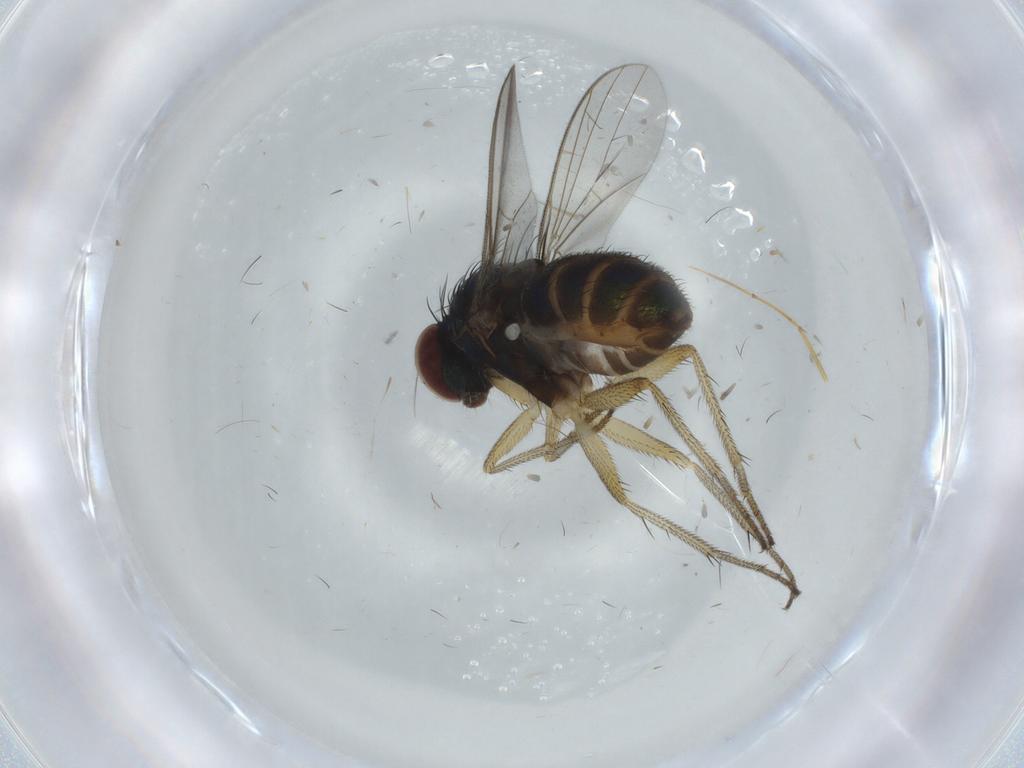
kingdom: Animalia
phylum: Arthropoda
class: Insecta
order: Diptera
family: Dolichopodidae
